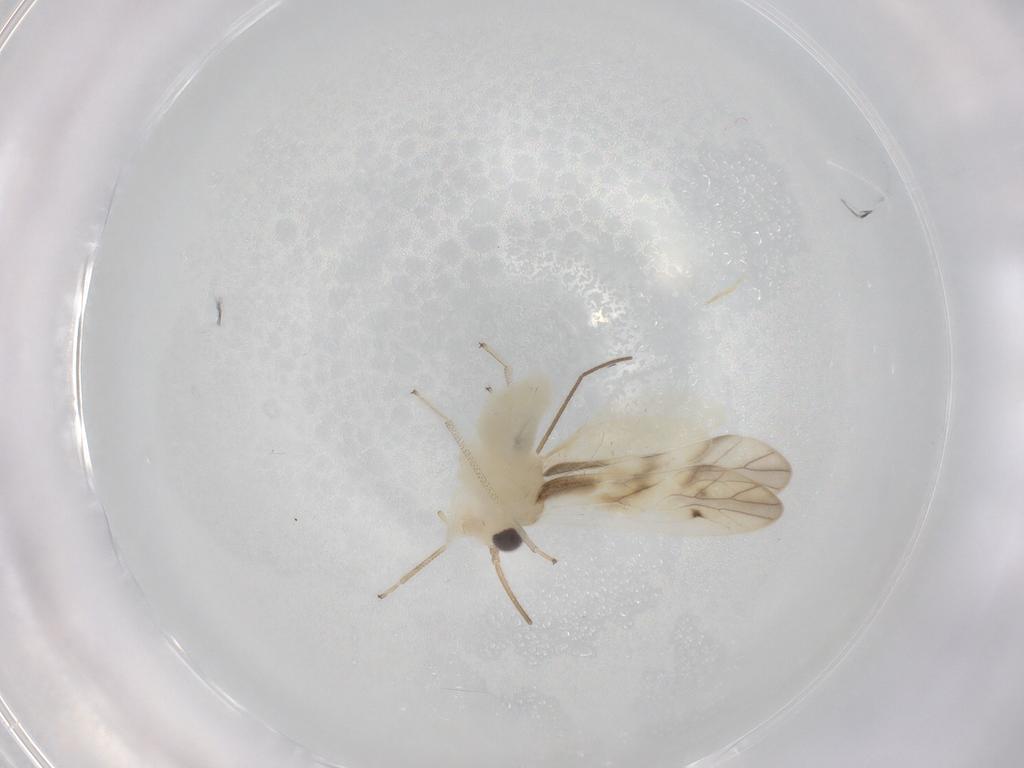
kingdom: Animalia
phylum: Arthropoda
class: Insecta
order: Psocodea
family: Caeciliusidae
